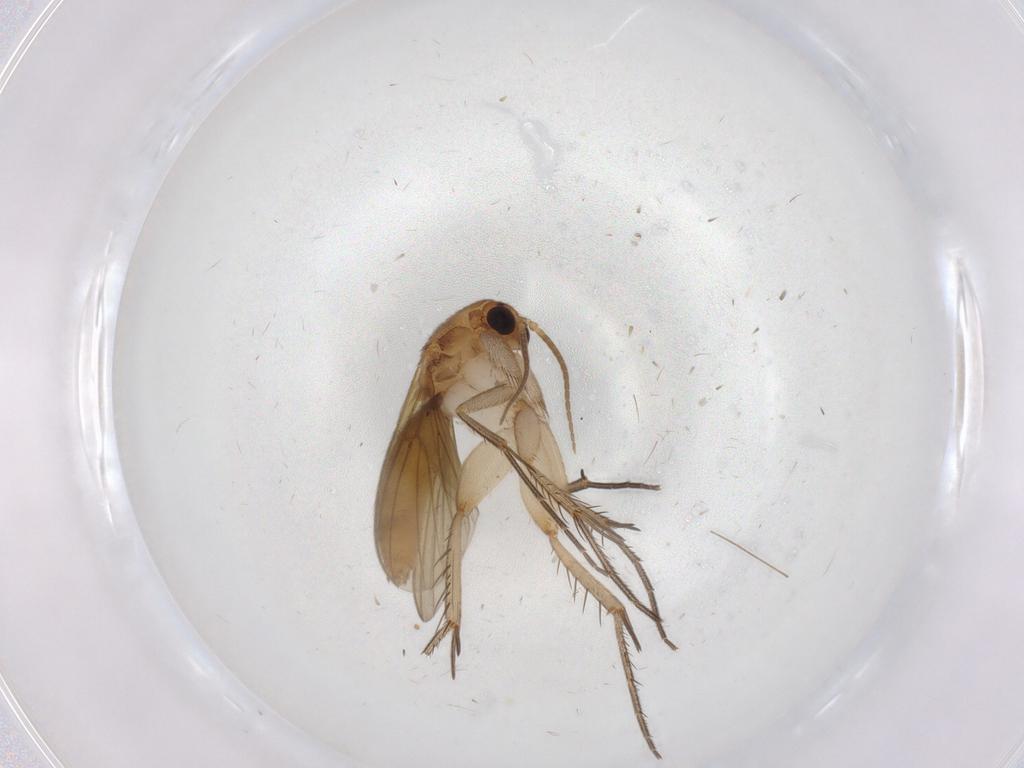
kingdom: Animalia
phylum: Arthropoda
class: Insecta
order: Diptera
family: Psychodidae
